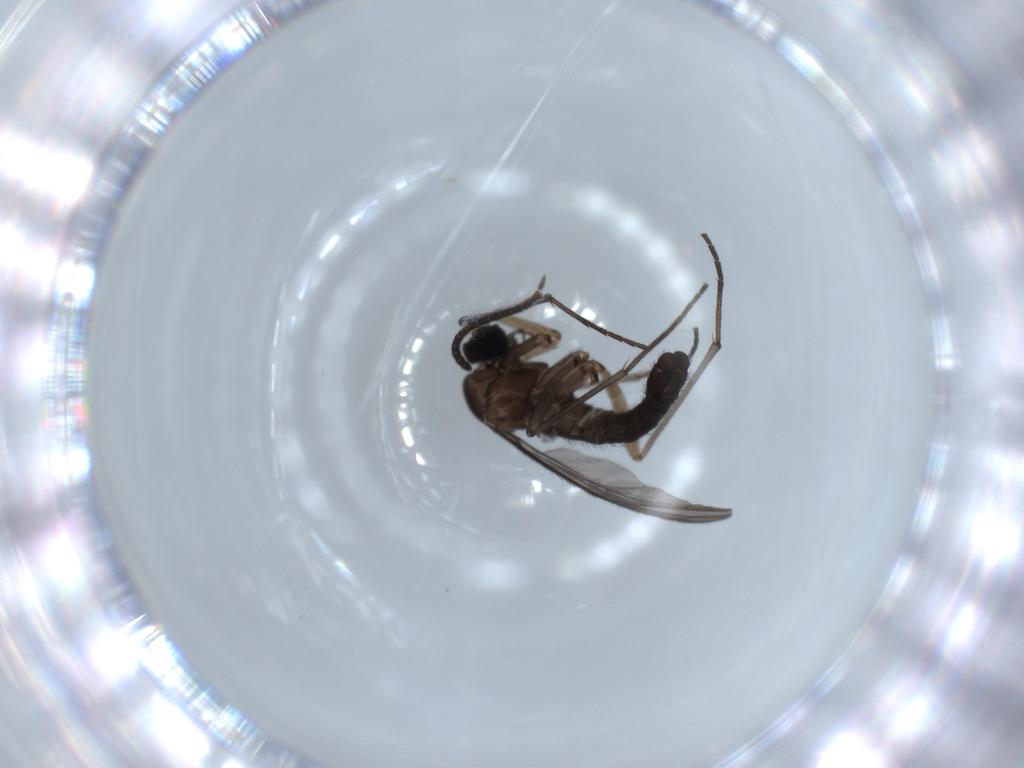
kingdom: Animalia
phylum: Arthropoda
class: Insecta
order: Diptera
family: Sciaridae
